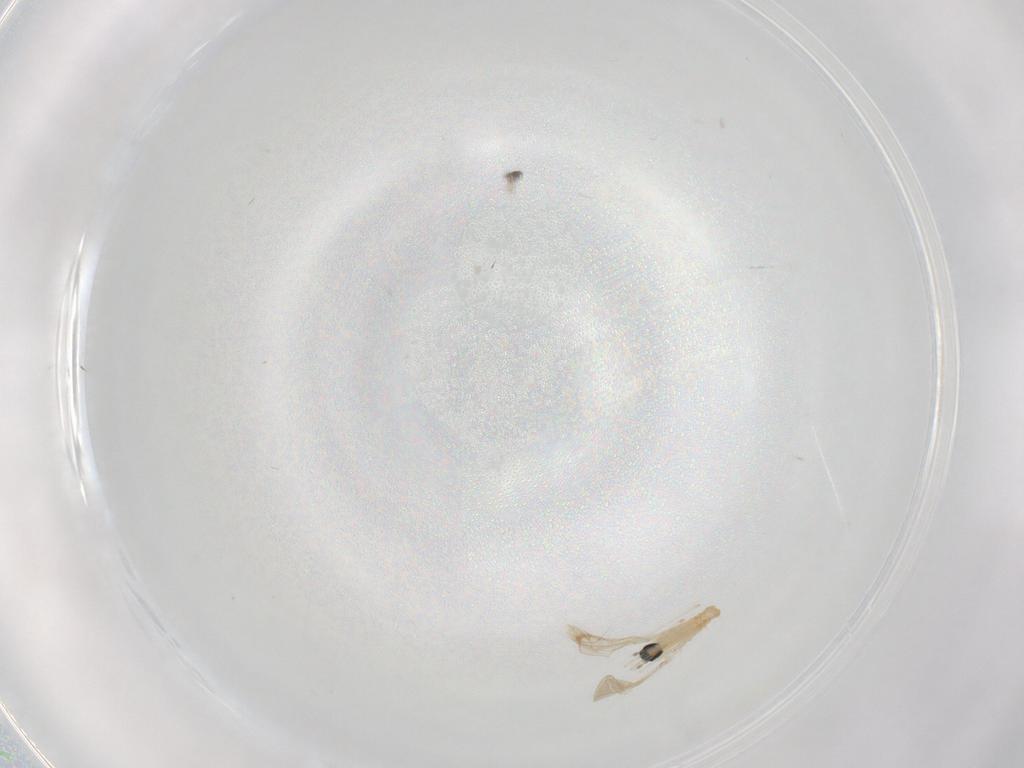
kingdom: Animalia
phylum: Arthropoda
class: Insecta
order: Diptera
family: Cecidomyiidae
